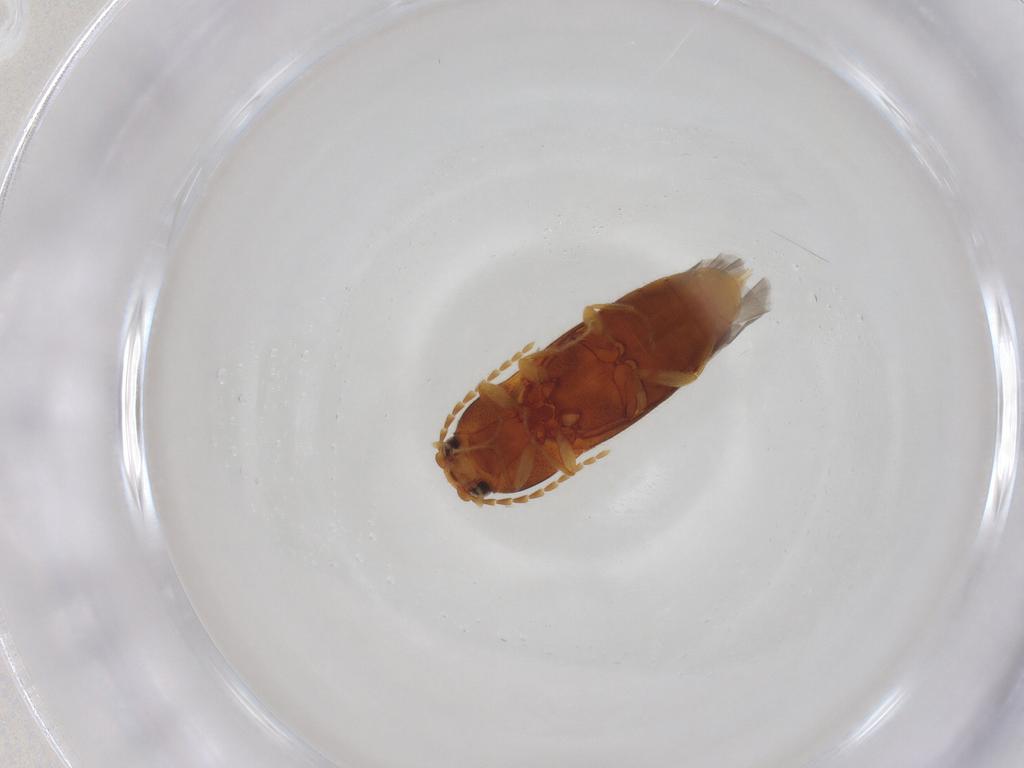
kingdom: Animalia
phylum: Arthropoda
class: Insecta
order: Coleoptera
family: Elateridae
